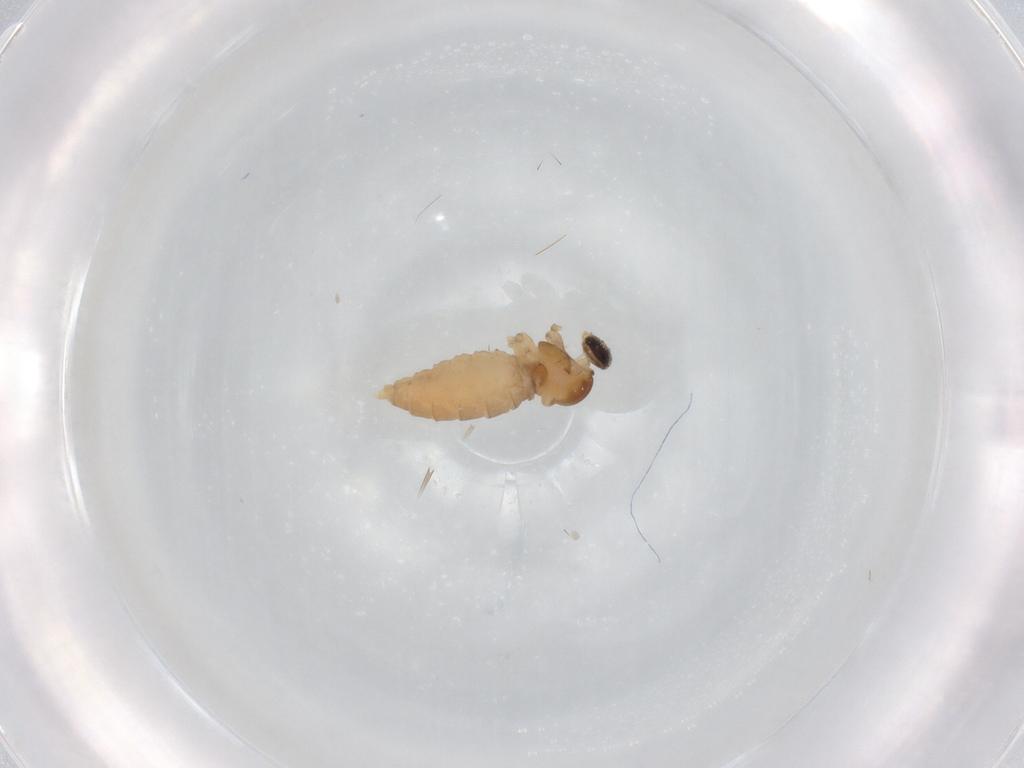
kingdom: Animalia
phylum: Arthropoda
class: Insecta
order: Diptera
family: Cecidomyiidae
